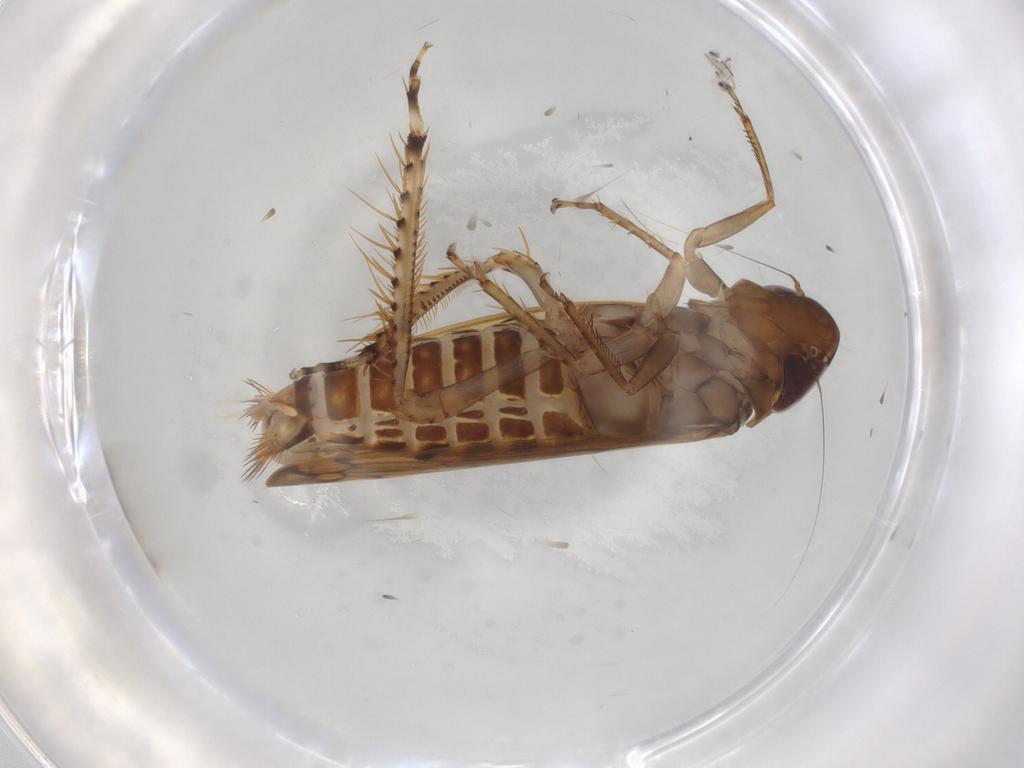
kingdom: Animalia
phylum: Arthropoda
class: Insecta
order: Hemiptera
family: Cicadellidae
